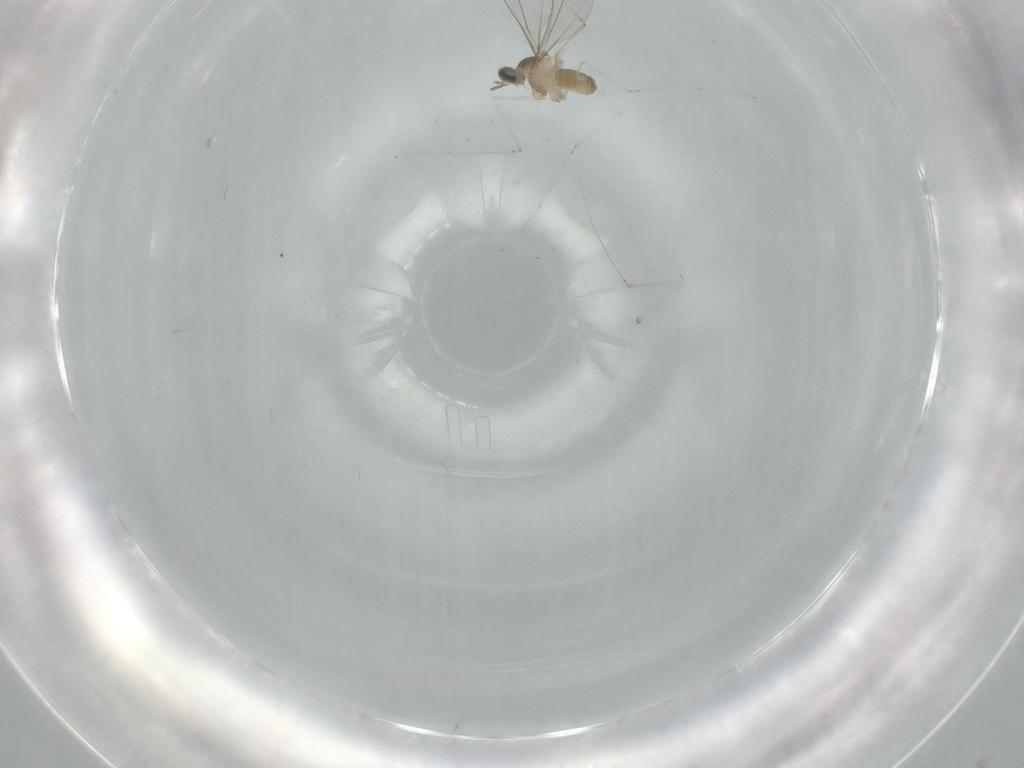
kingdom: Animalia
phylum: Arthropoda
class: Insecta
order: Diptera
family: Cecidomyiidae
